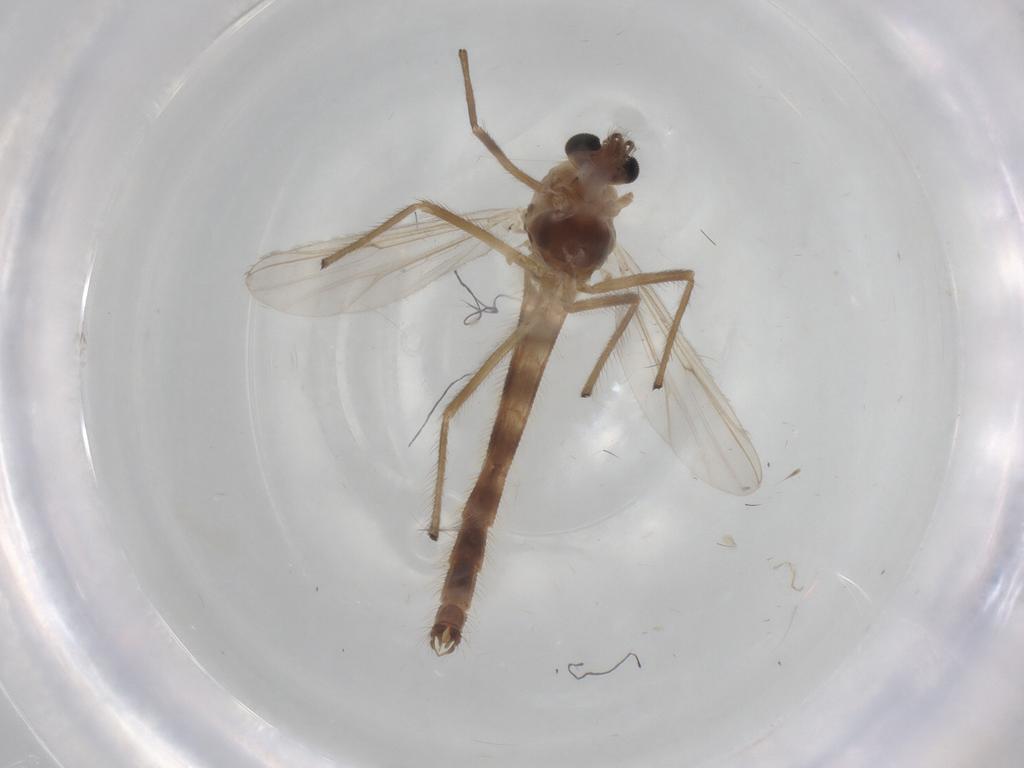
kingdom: Animalia
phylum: Arthropoda
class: Insecta
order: Diptera
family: Chironomidae
